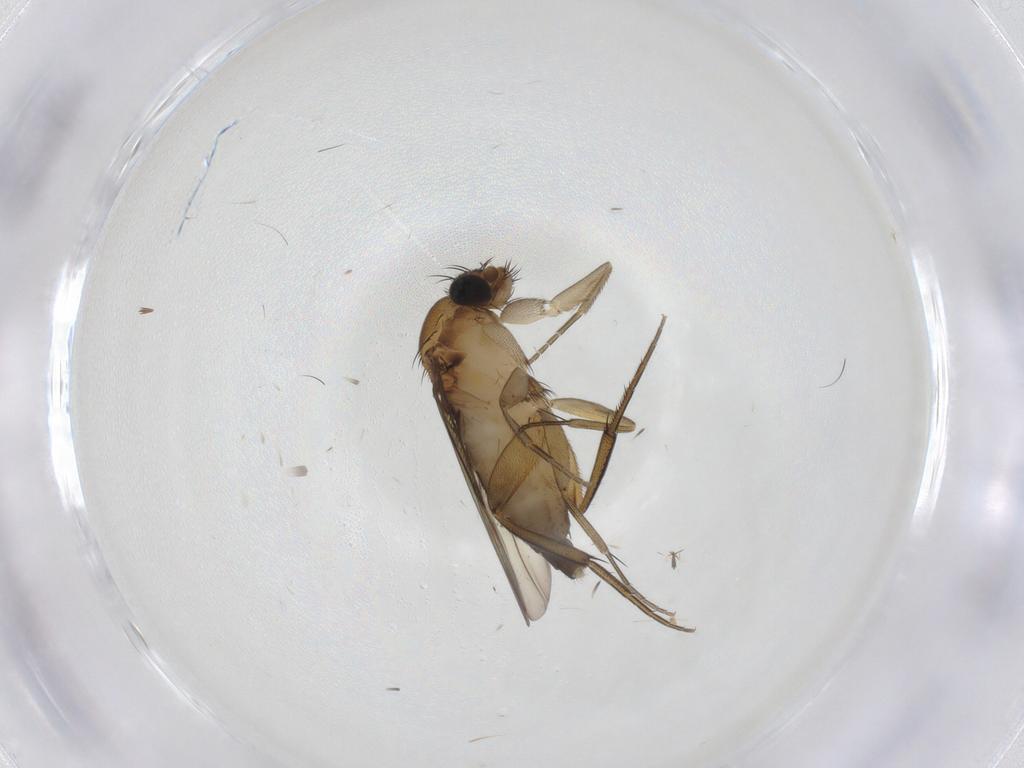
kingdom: Animalia
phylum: Arthropoda
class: Insecta
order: Diptera
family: Phoridae
